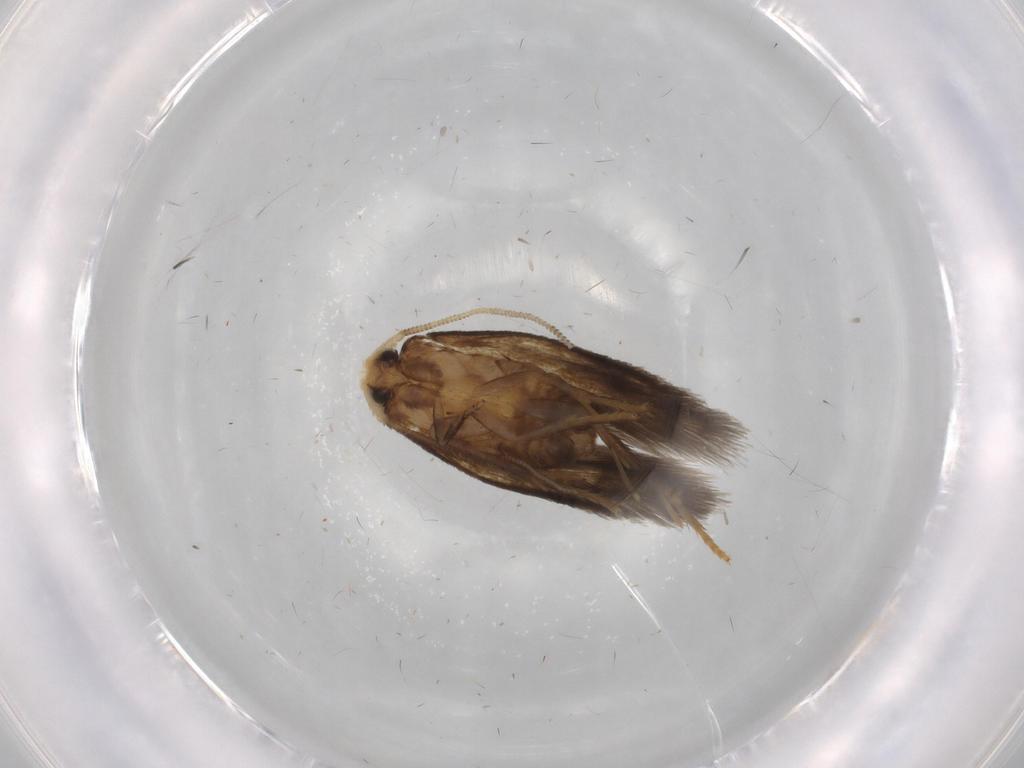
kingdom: Animalia
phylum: Arthropoda
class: Insecta
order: Lepidoptera
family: Nepticulidae
